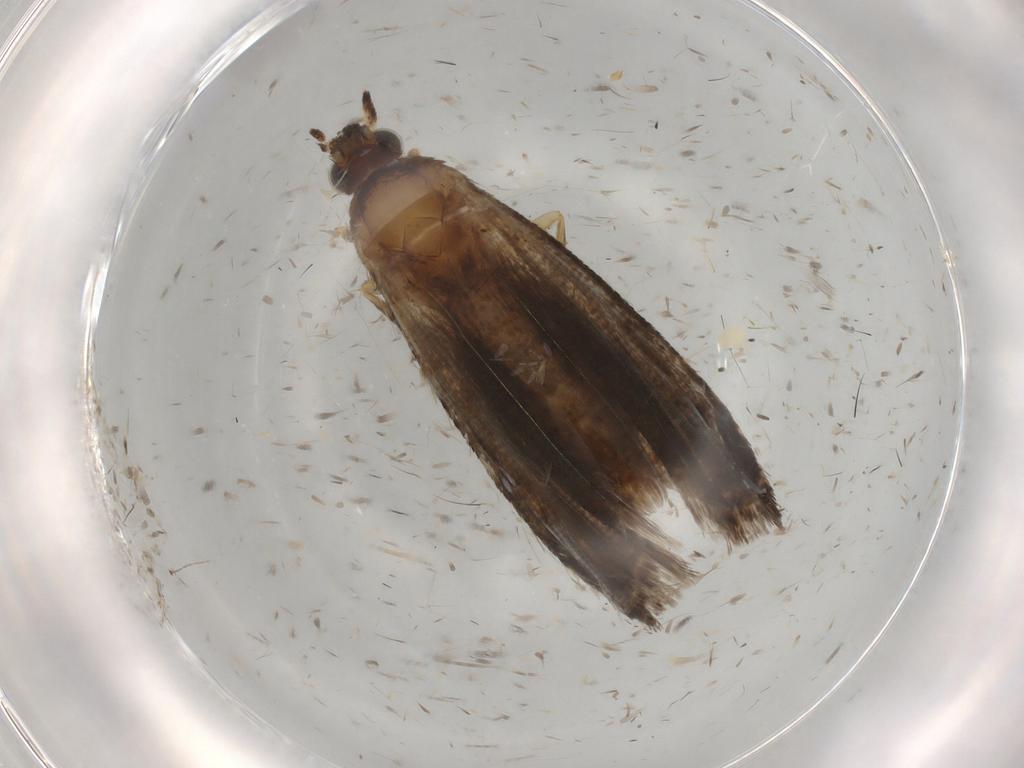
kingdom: Animalia
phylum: Arthropoda
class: Insecta
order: Lepidoptera
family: Tortricidae
